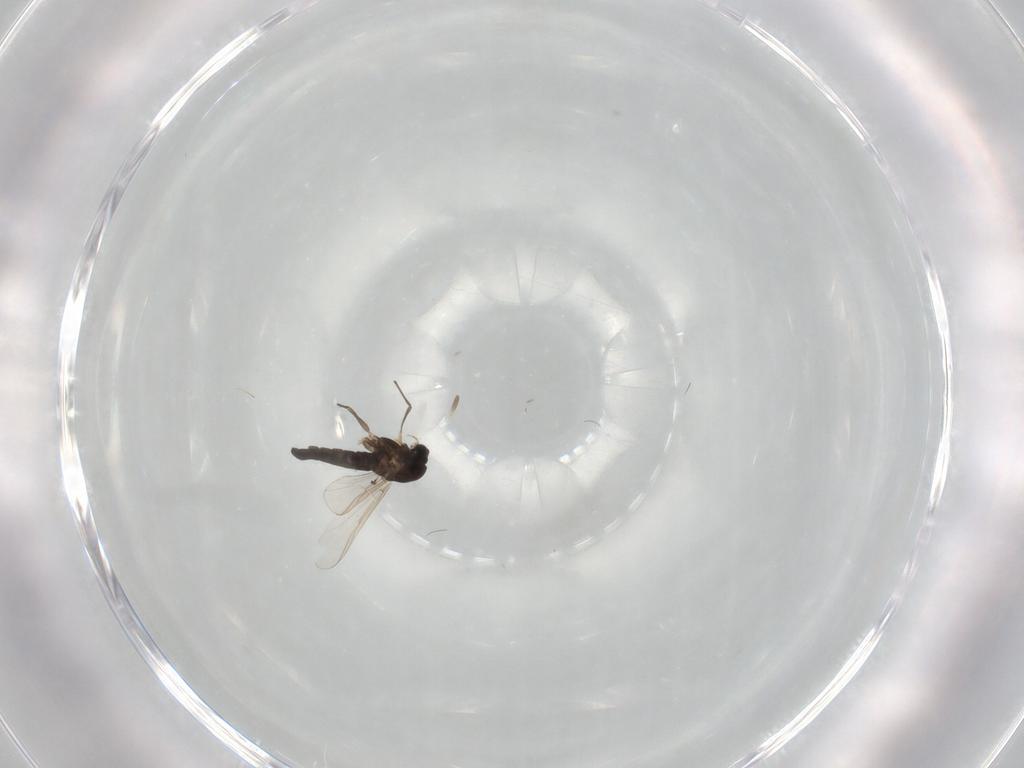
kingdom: Animalia
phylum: Arthropoda
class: Insecta
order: Diptera
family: Tabanidae
